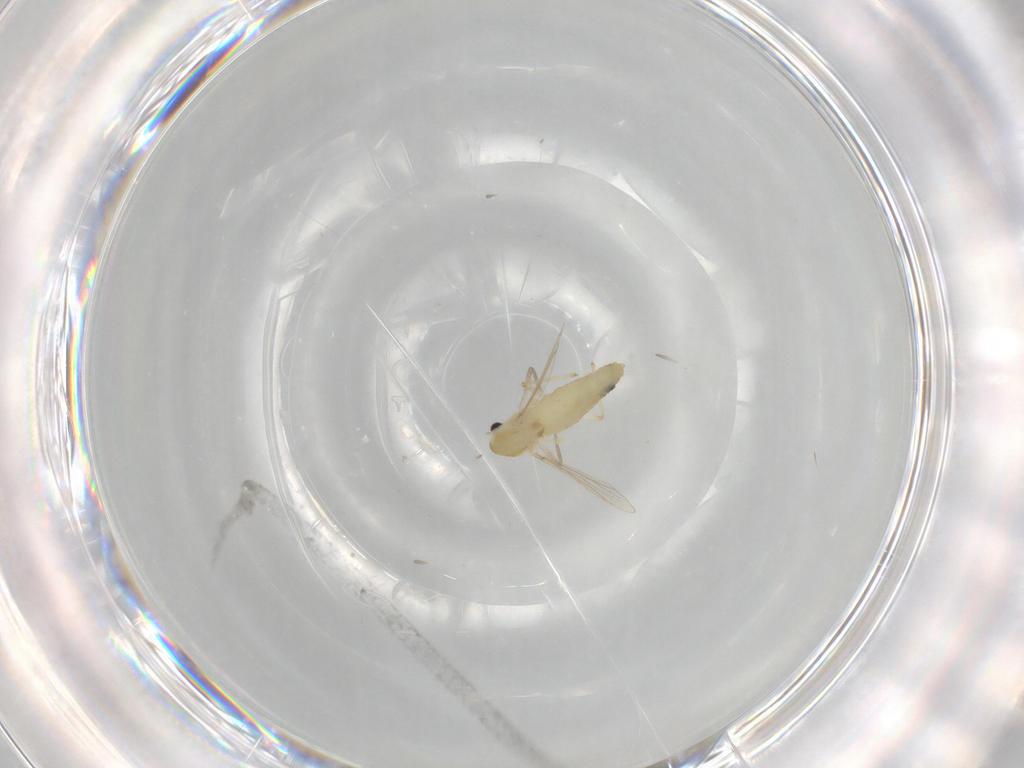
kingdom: Animalia
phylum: Arthropoda
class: Insecta
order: Diptera
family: Chironomidae
